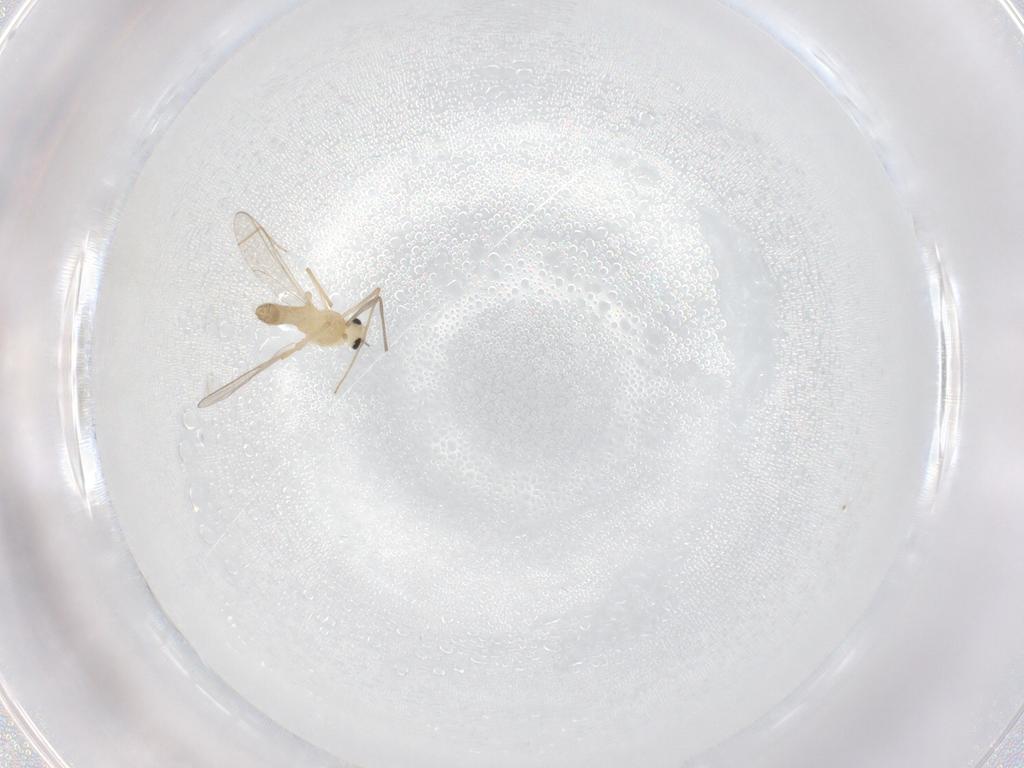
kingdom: Animalia
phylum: Arthropoda
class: Insecta
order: Diptera
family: Chironomidae
